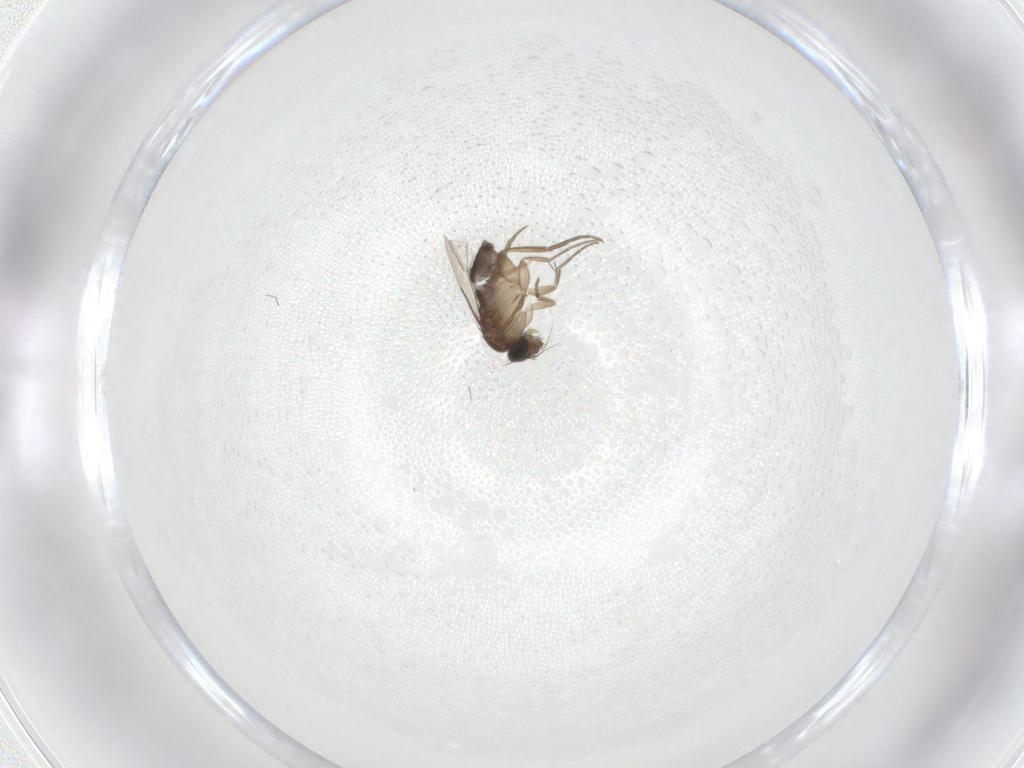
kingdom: Animalia
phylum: Arthropoda
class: Insecta
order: Diptera
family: Chironomidae
